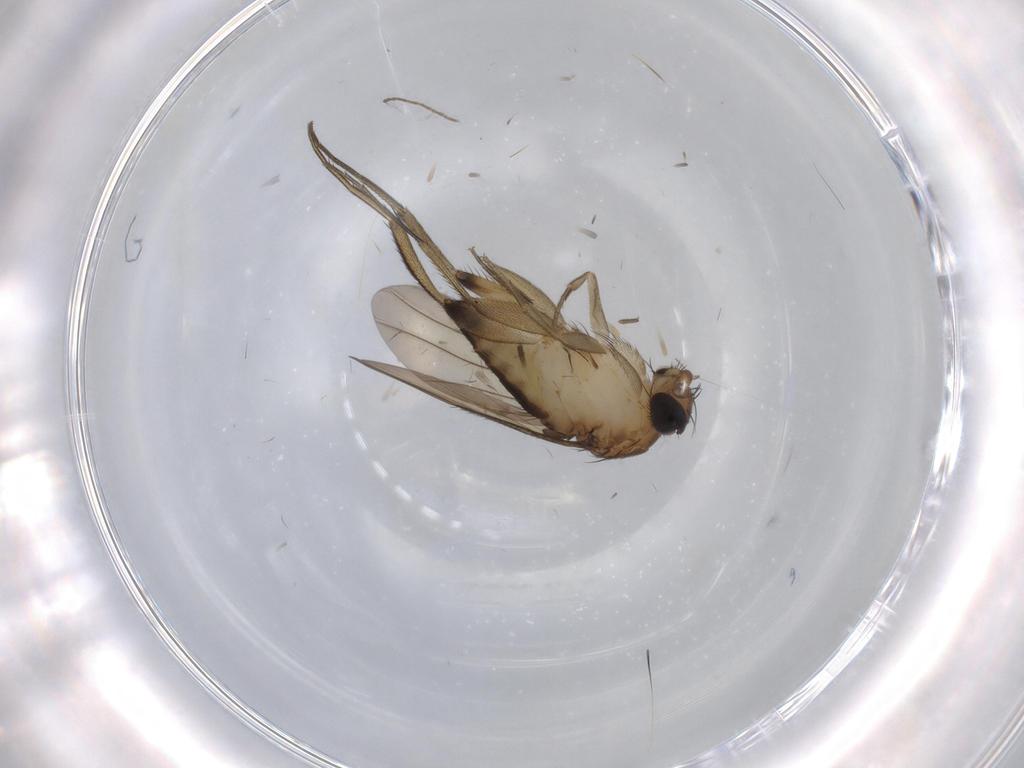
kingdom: Animalia
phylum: Arthropoda
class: Insecta
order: Diptera
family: Phoridae
